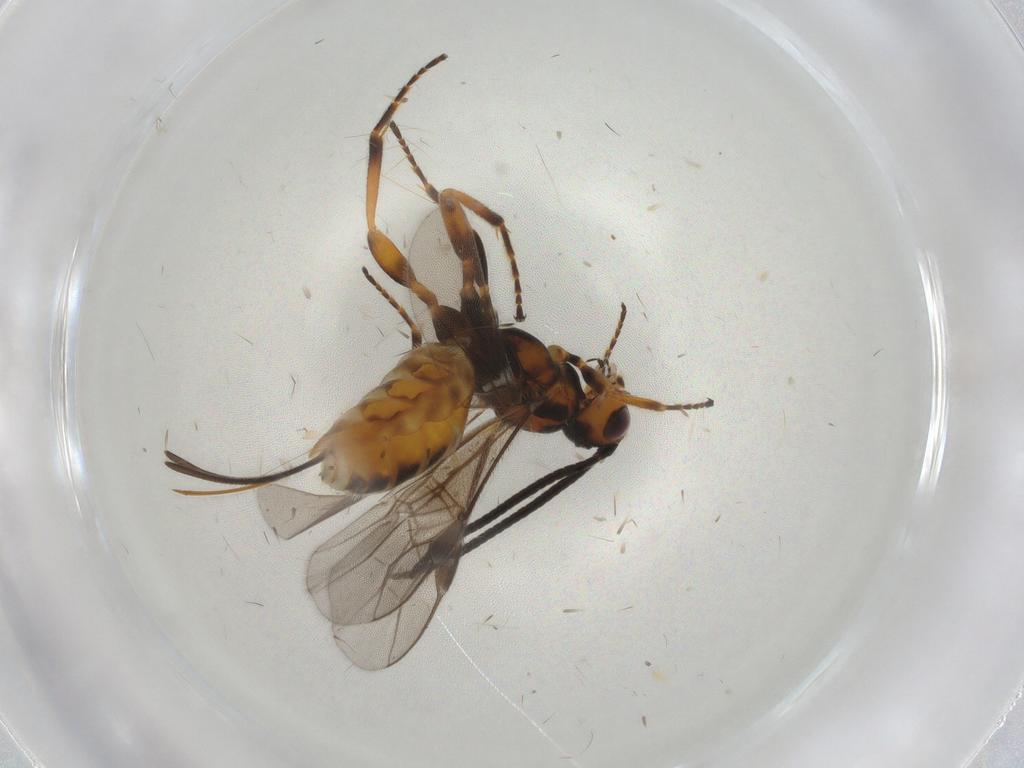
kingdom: Animalia
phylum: Arthropoda
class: Insecta
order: Hymenoptera
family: Braconidae
